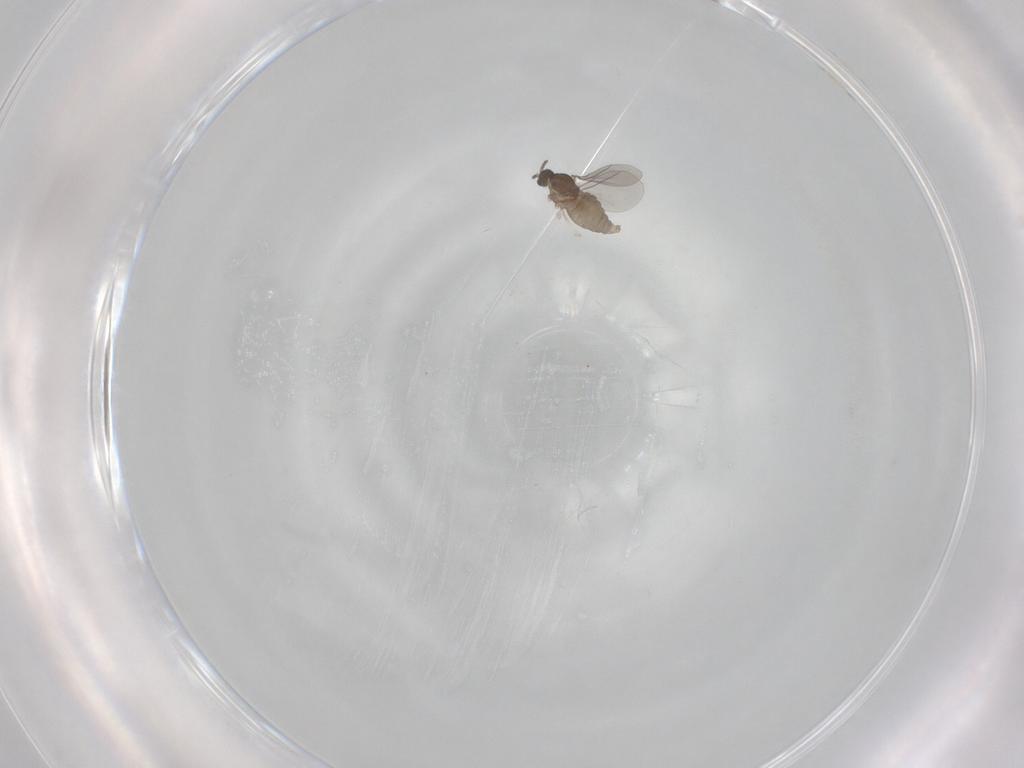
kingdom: Animalia
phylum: Arthropoda
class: Insecta
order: Diptera
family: Cecidomyiidae
